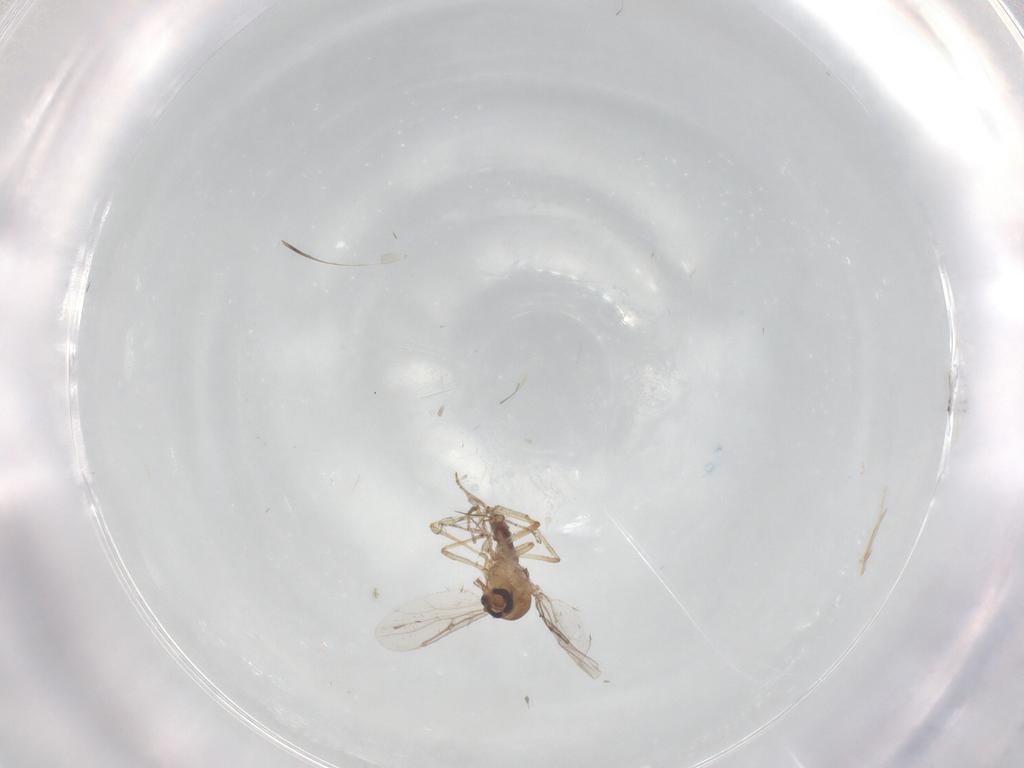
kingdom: Animalia
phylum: Arthropoda
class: Insecta
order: Diptera
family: Ceratopogonidae
